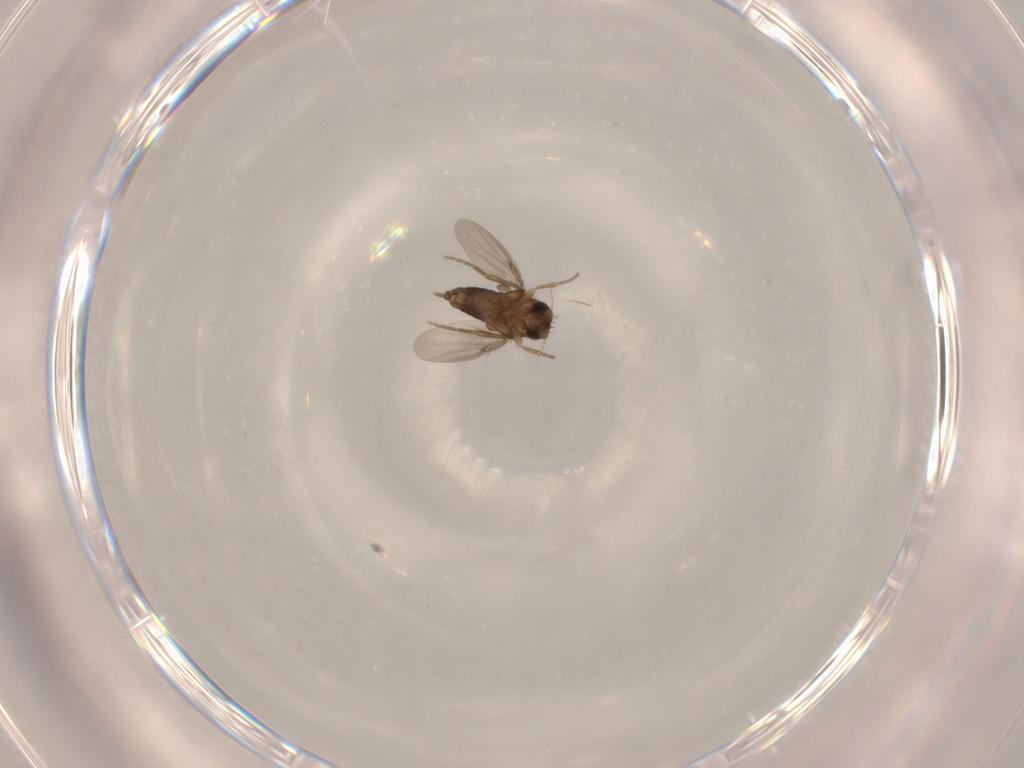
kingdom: Animalia
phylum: Arthropoda
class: Insecta
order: Diptera
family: Phoridae
